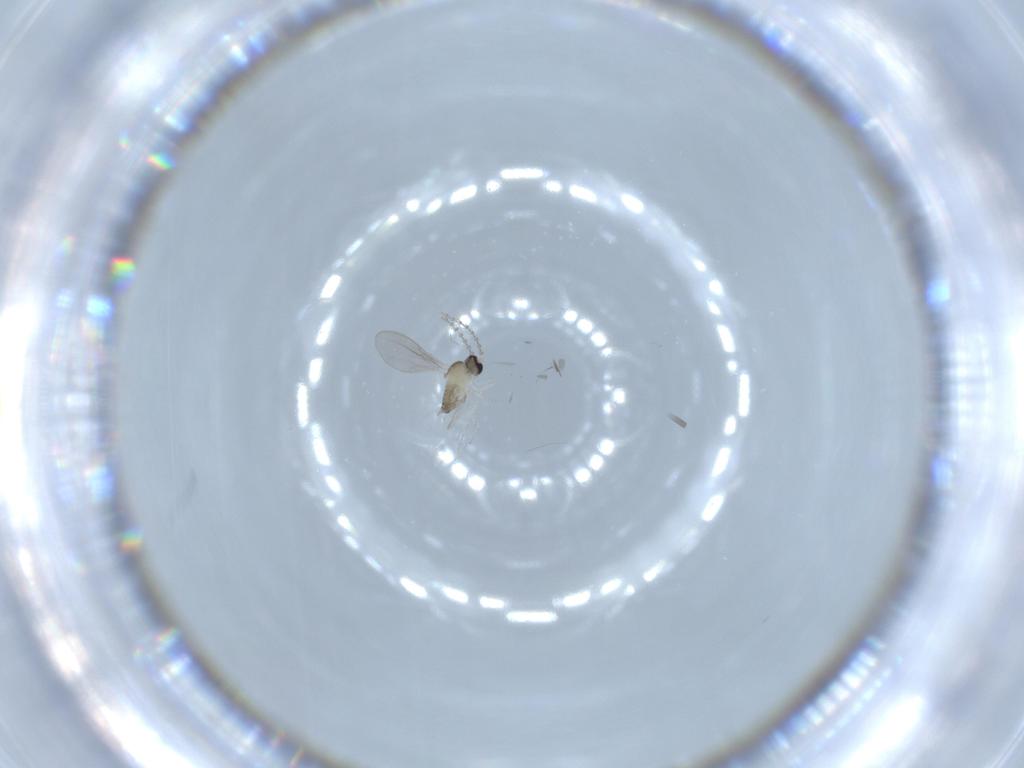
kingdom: Animalia
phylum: Arthropoda
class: Insecta
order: Diptera
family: Cecidomyiidae
